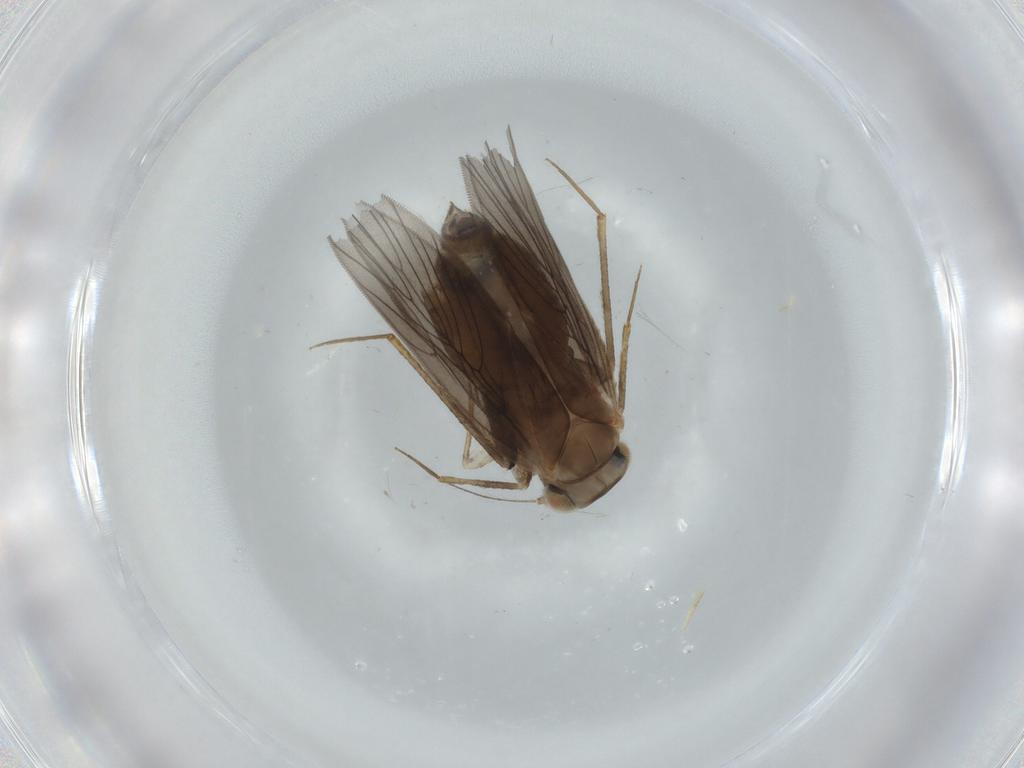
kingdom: Animalia
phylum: Arthropoda
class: Insecta
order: Psocodea
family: Lepidopsocidae
